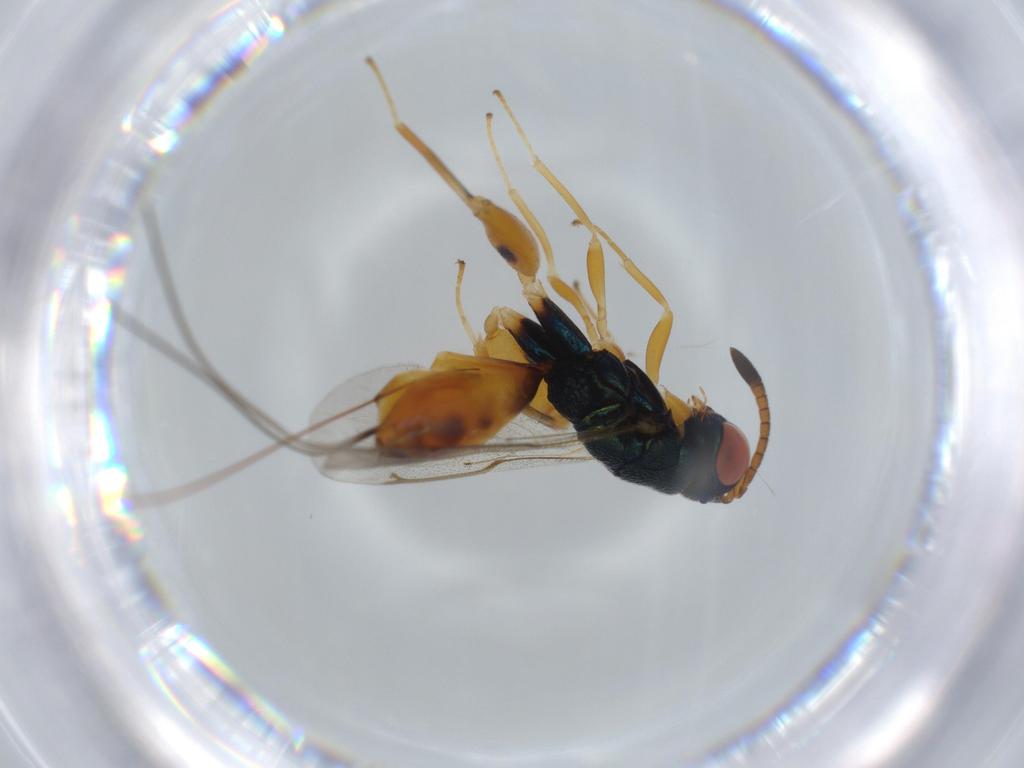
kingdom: Animalia
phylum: Arthropoda
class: Insecta
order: Hymenoptera
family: Torymidae
